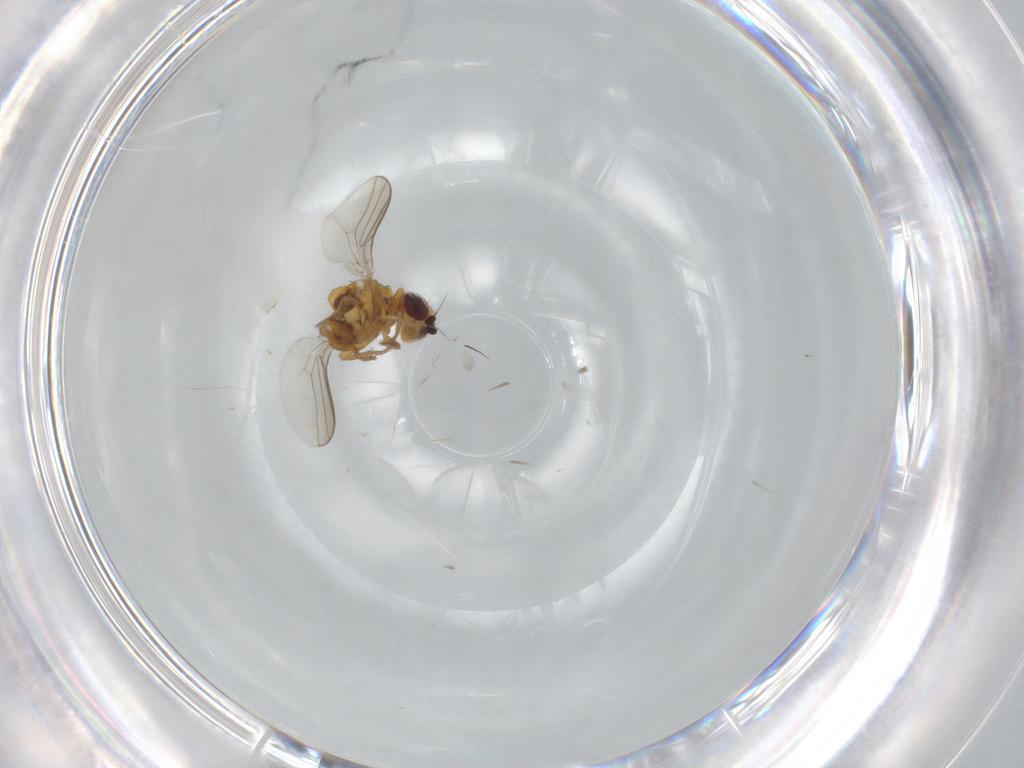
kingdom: Animalia
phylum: Arthropoda
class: Insecta
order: Diptera
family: Chloropidae
